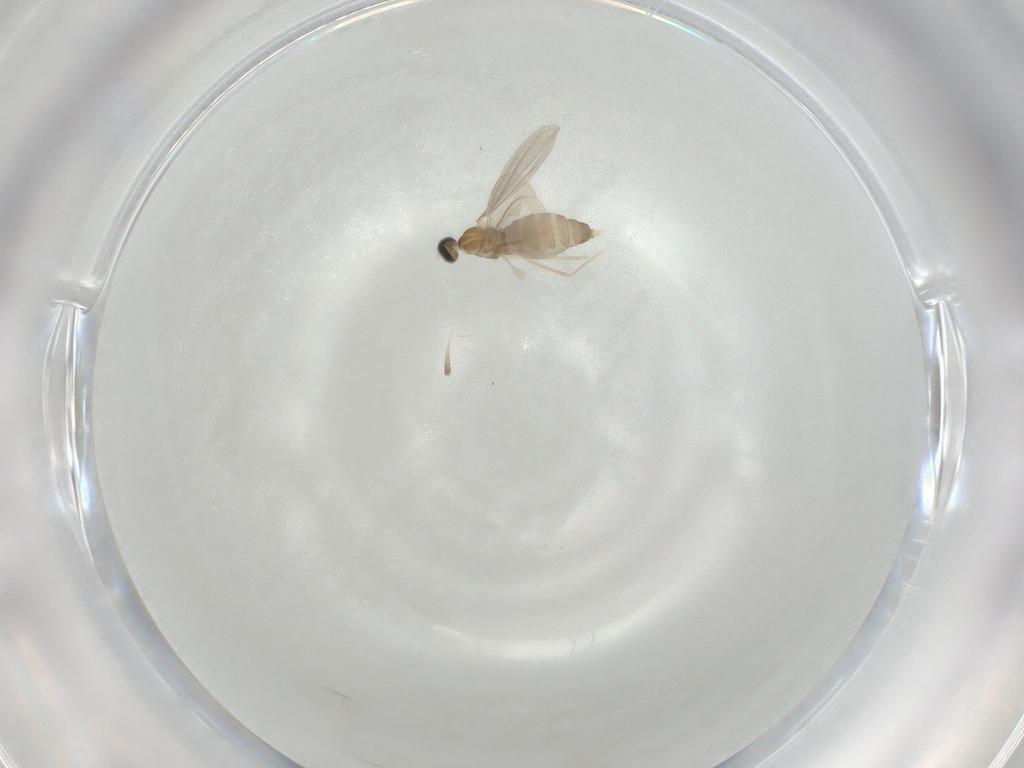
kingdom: Animalia
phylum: Arthropoda
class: Insecta
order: Diptera
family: Cecidomyiidae
